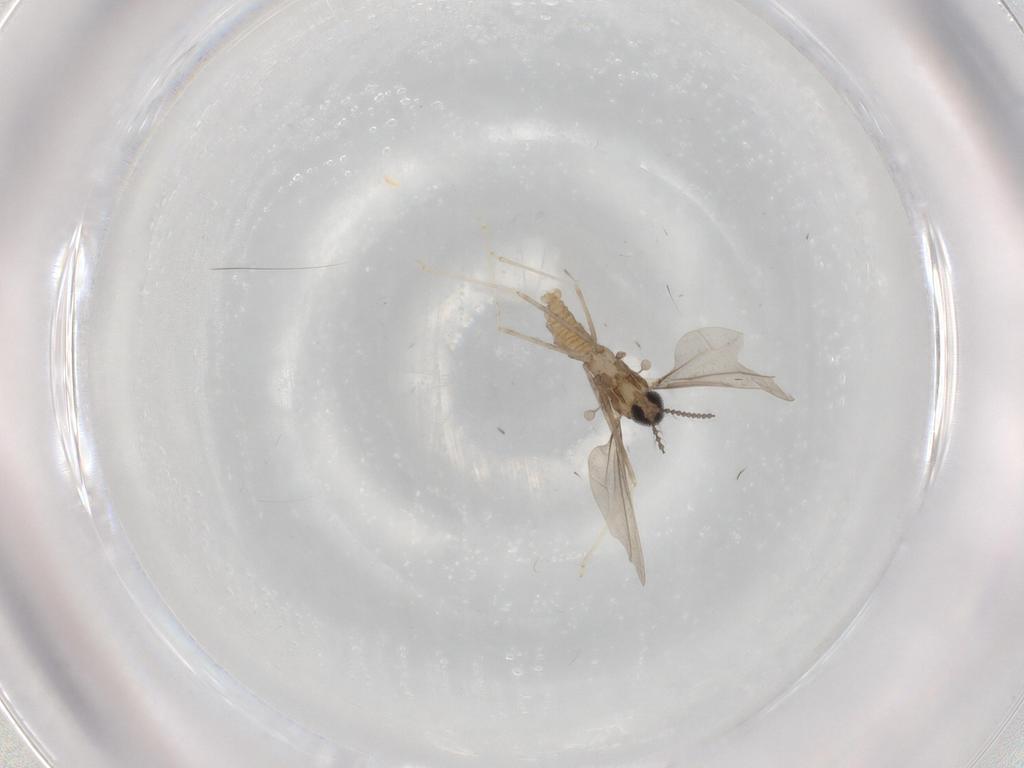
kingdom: Animalia
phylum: Arthropoda
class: Insecta
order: Diptera
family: Cecidomyiidae
